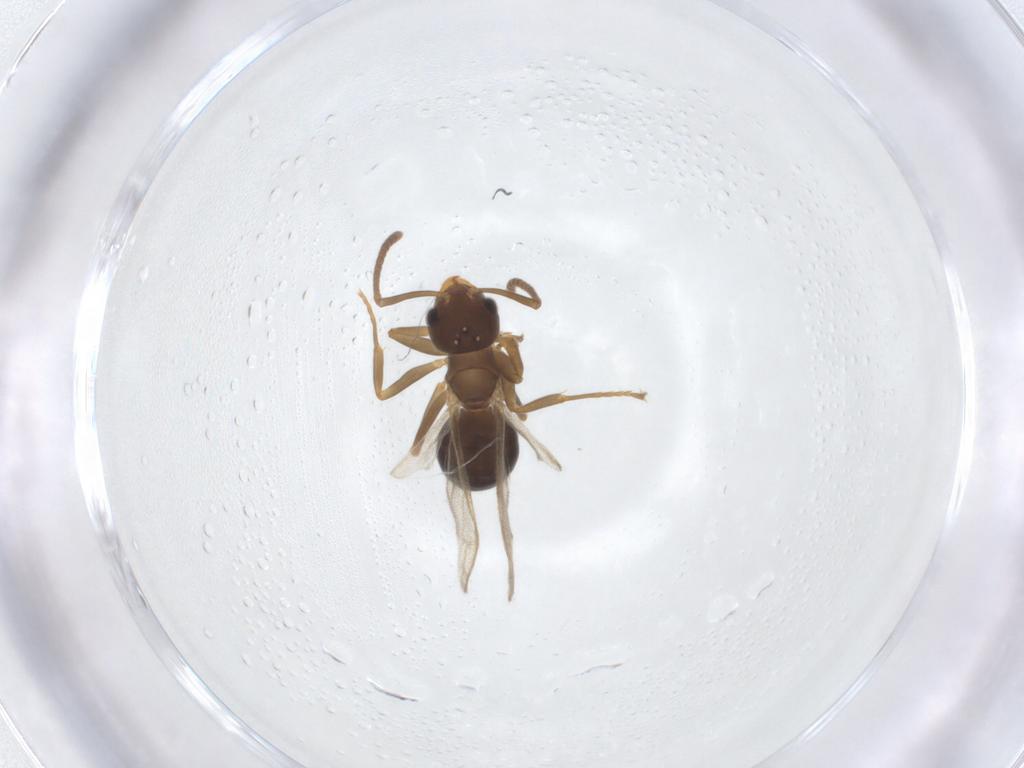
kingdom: Animalia
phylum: Arthropoda
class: Insecta
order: Hymenoptera
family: Formicidae
